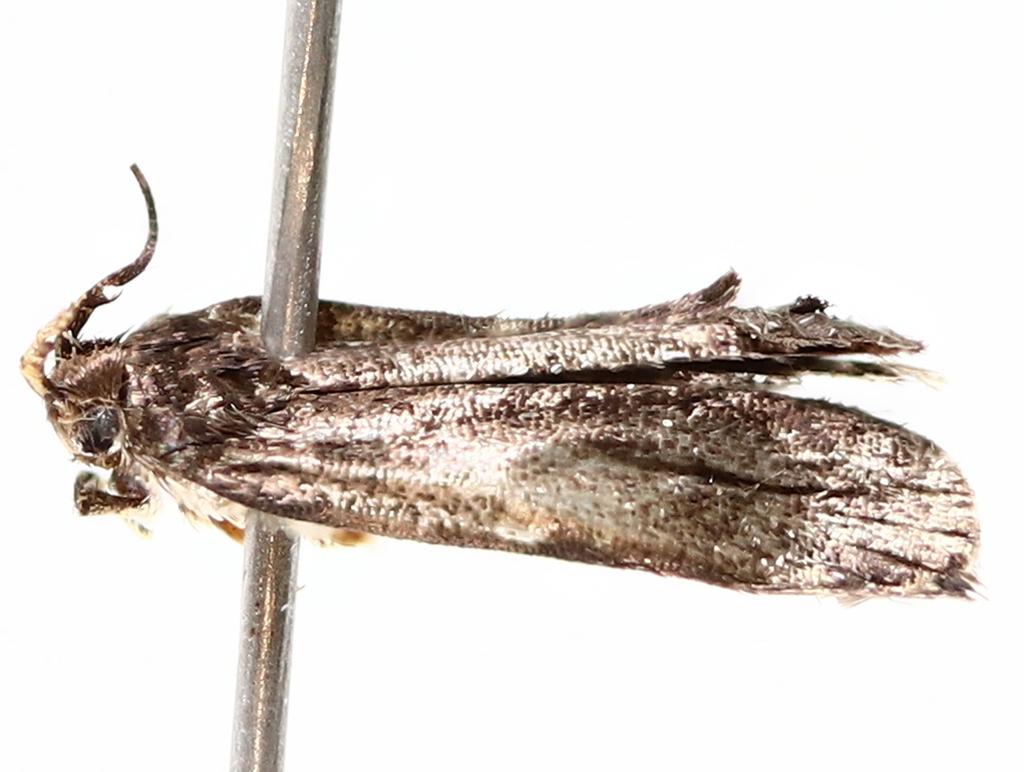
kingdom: Animalia
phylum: Arthropoda
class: Insecta
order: Diptera
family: Cecidomyiidae
